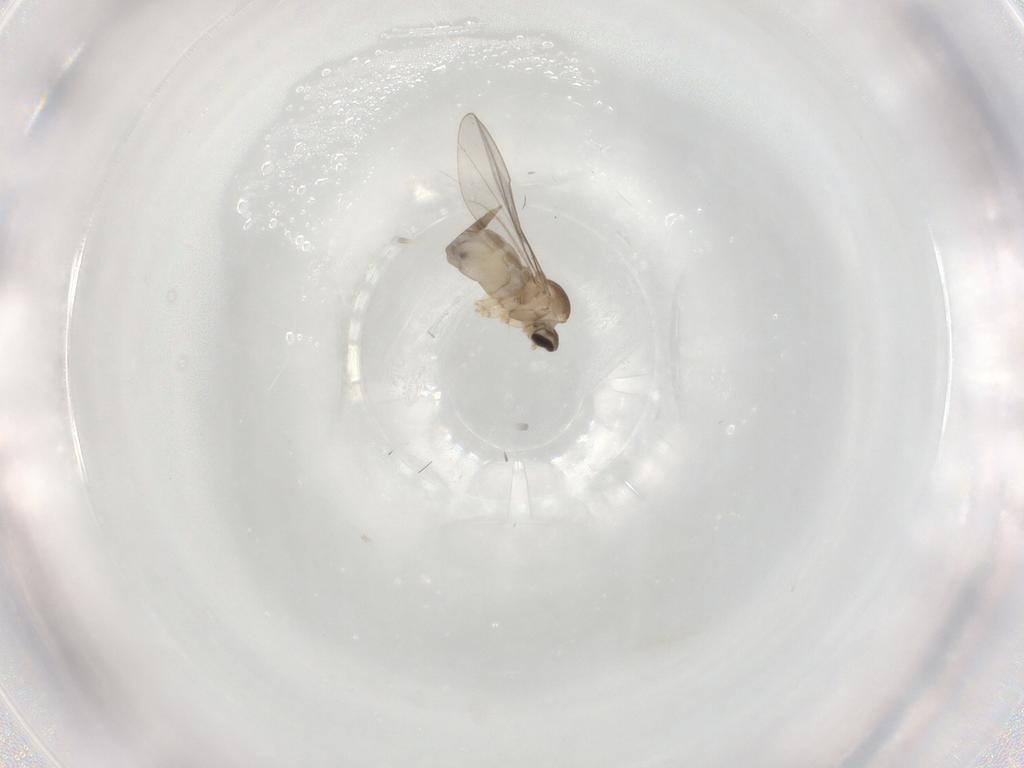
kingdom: Animalia
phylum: Arthropoda
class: Insecta
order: Diptera
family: Cecidomyiidae
